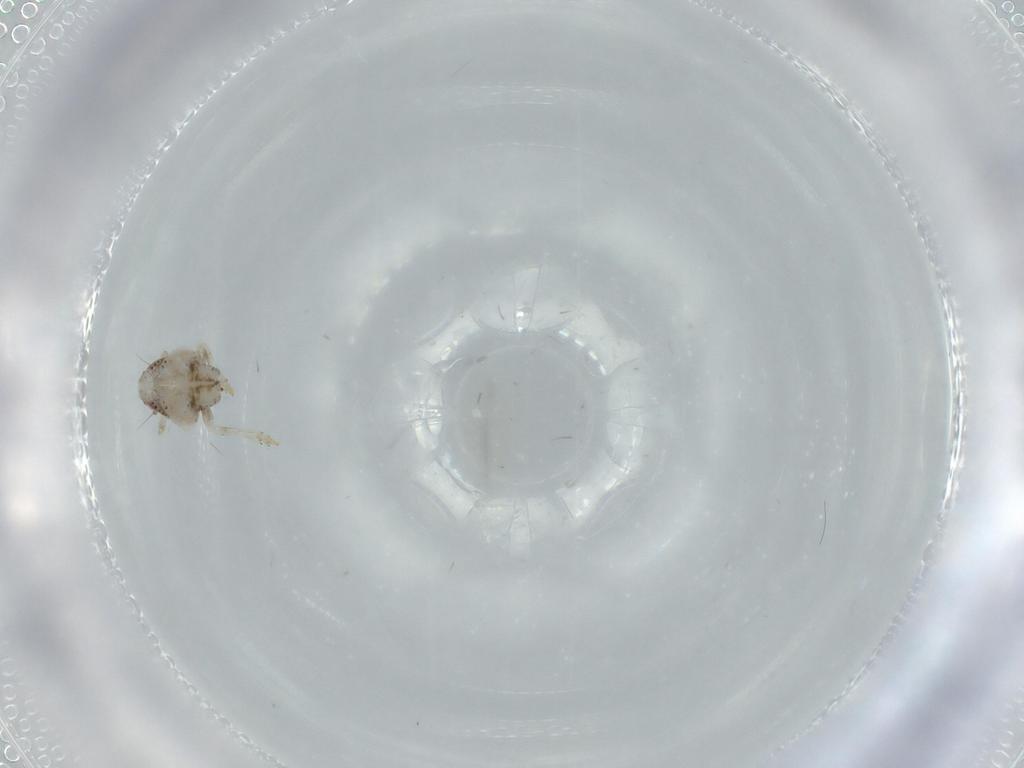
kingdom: Animalia
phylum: Arthropoda
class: Insecta
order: Hemiptera
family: Acanaloniidae
